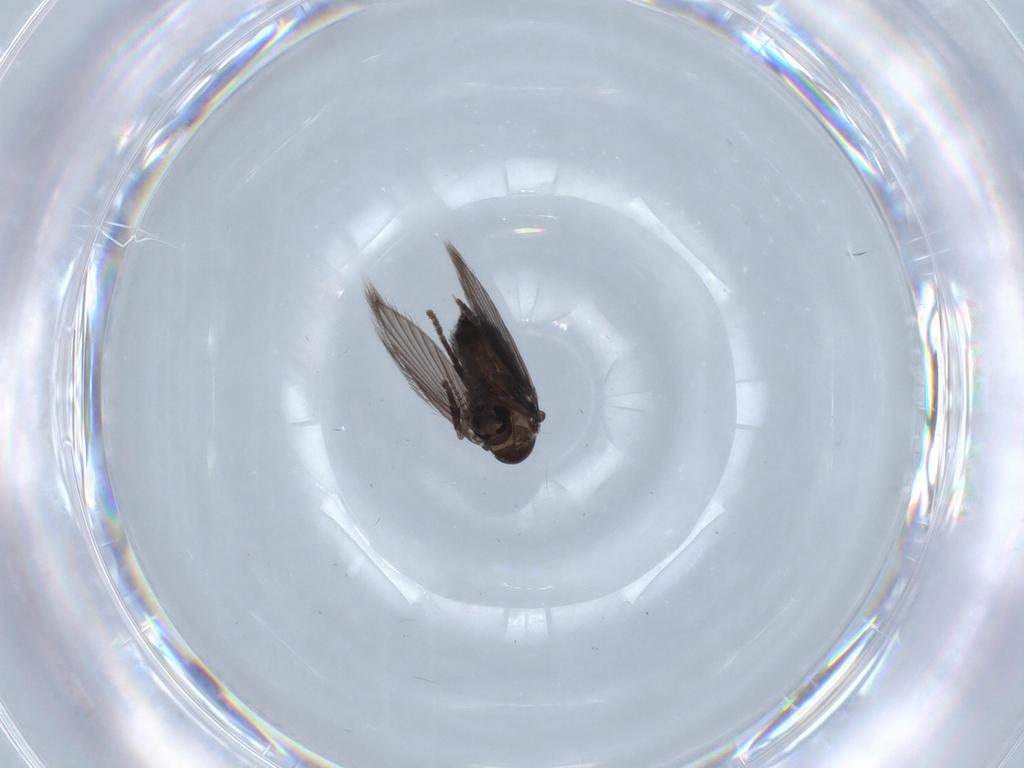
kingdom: Animalia
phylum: Arthropoda
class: Insecta
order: Diptera
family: Psychodidae
